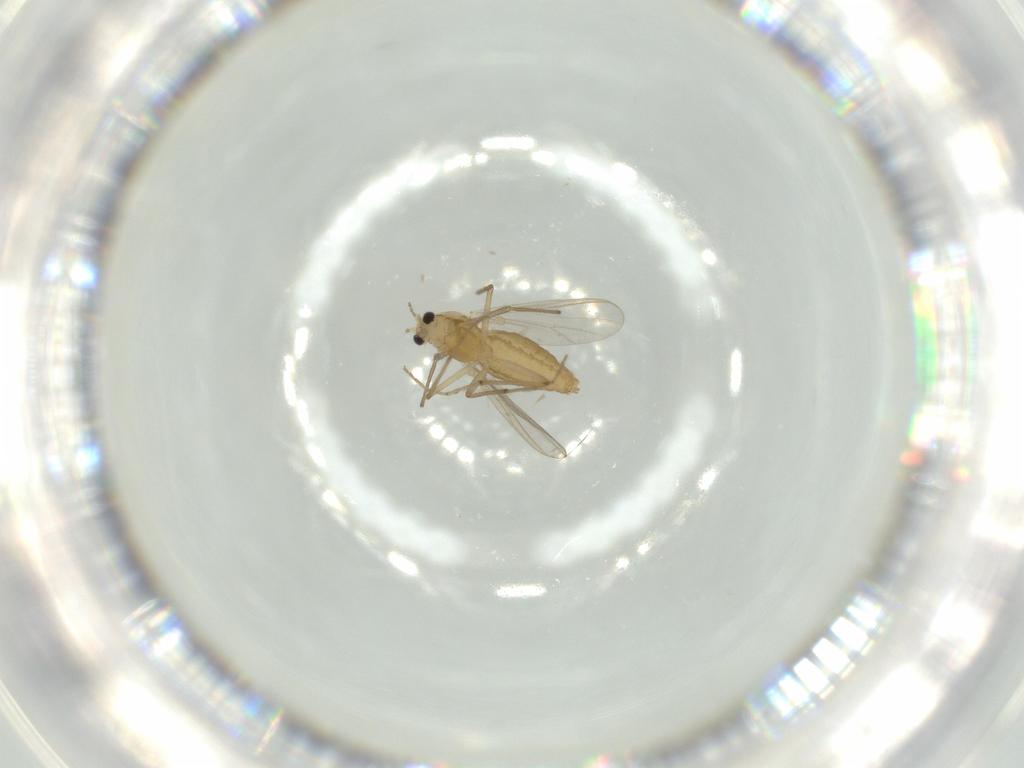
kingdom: Animalia
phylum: Arthropoda
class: Insecta
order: Diptera
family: Chironomidae
